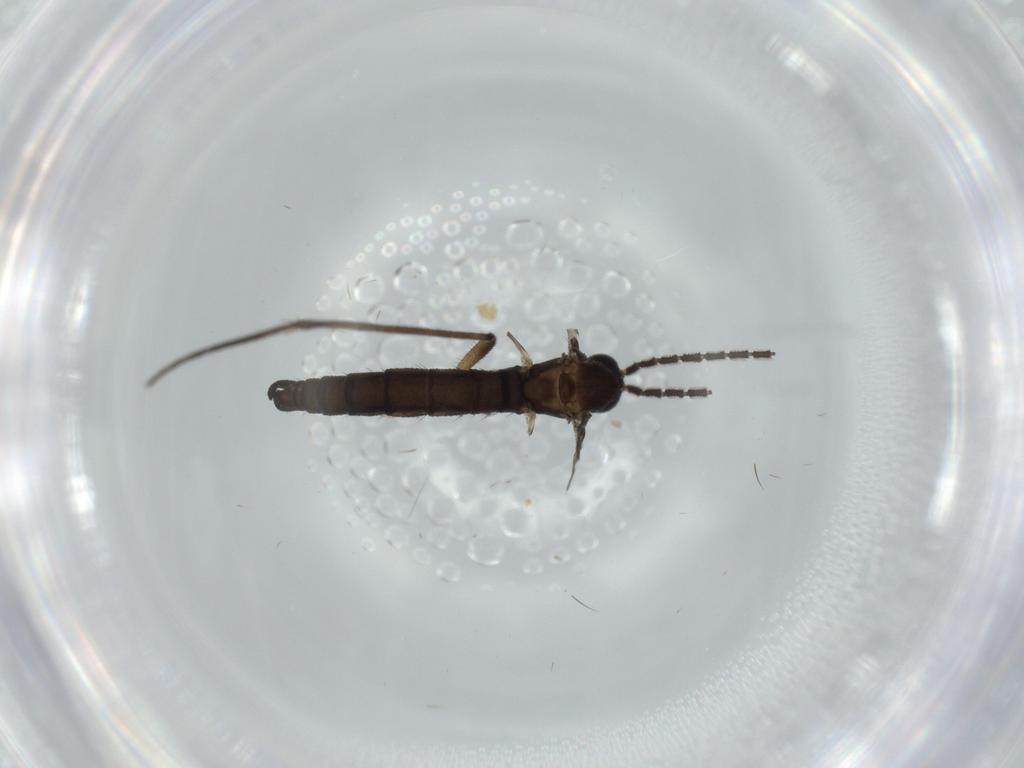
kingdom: Animalia
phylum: Arthropoda
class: Insecta
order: Diptera
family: Sciaridae
